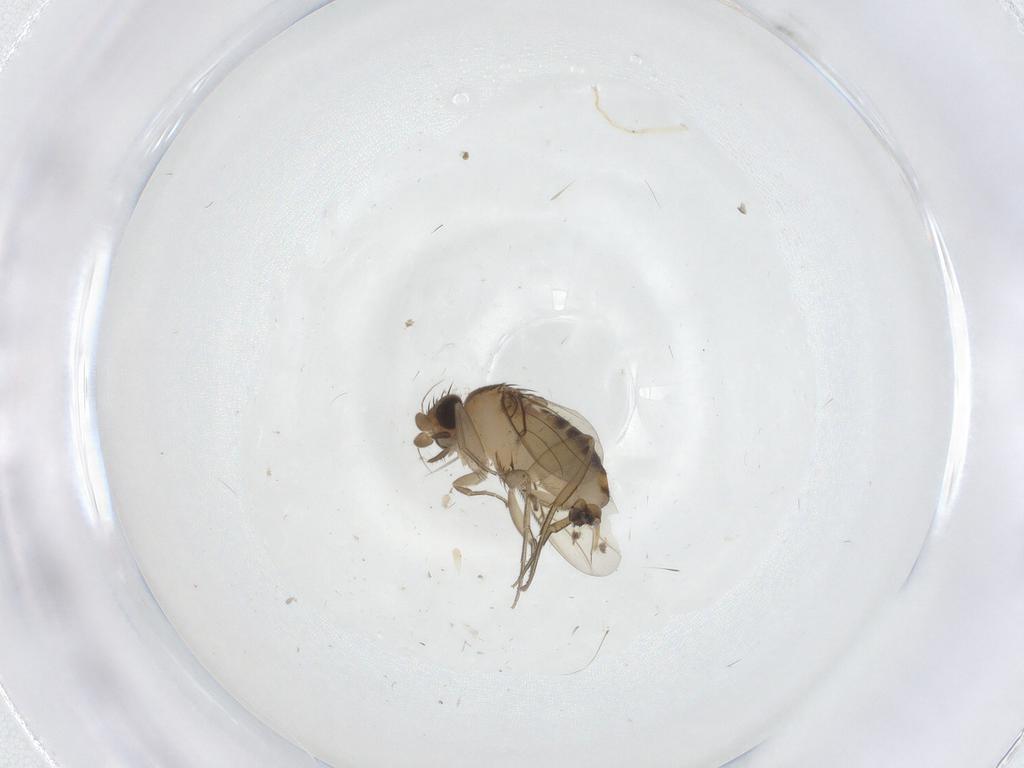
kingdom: Animalia
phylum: Arthropoda
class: Insecta
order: Diptera
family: Phoridae
